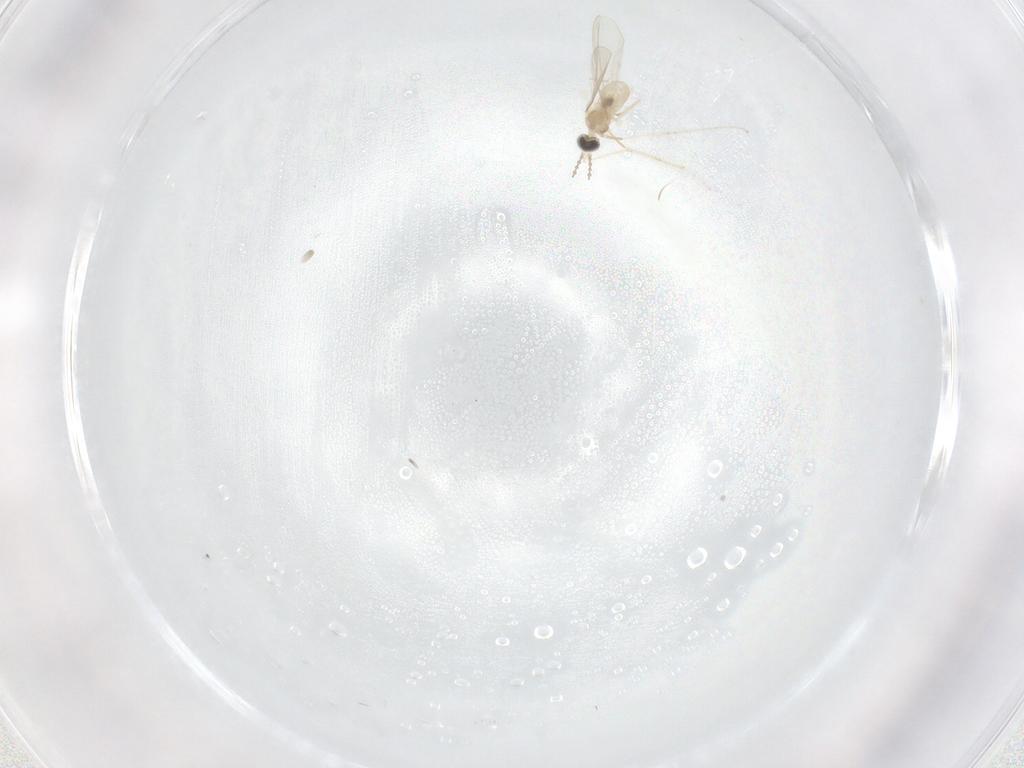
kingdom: Animalia
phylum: Arthropoda
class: Insecta
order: Diptera
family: Cecidomyiidae
